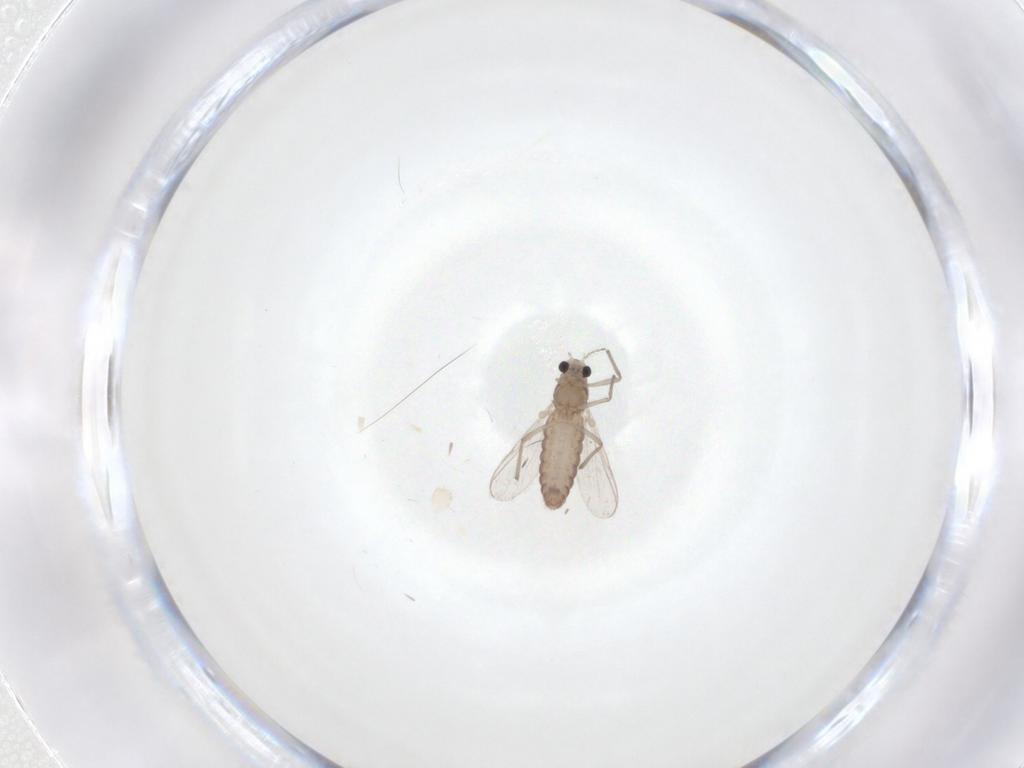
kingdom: Animalia
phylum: Arthropoda
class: Insecta
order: Diptera
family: Chironomidae
